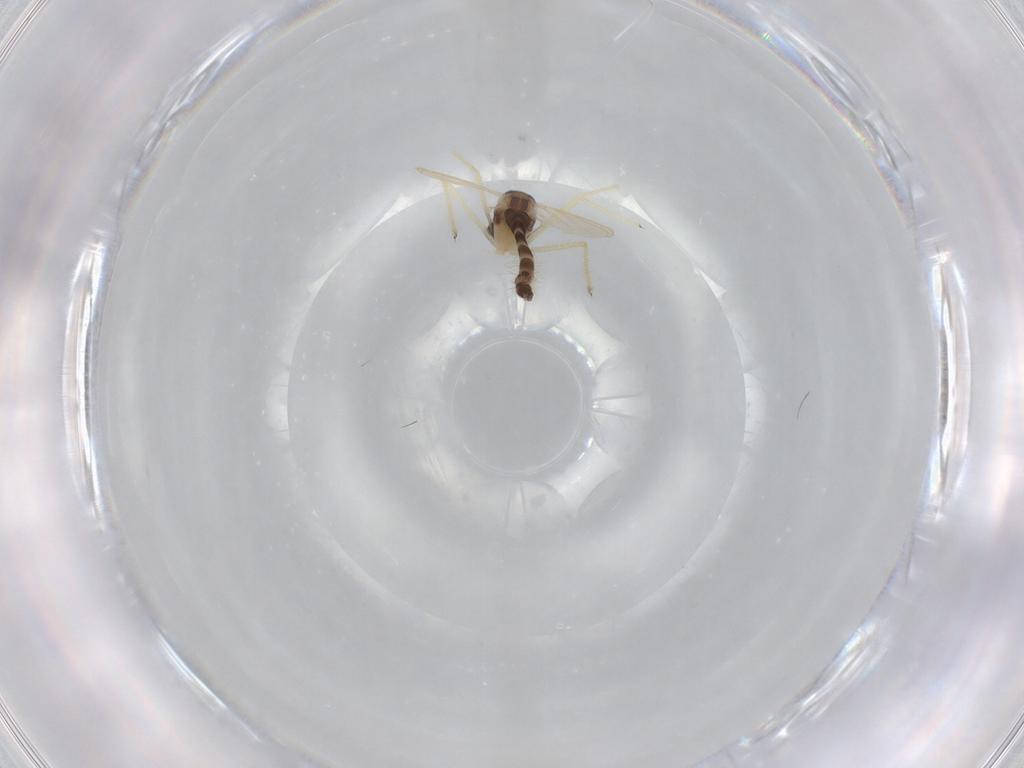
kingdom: Animalia
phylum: Arthropoda
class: Insecta
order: Diptera
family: Chironomidae
